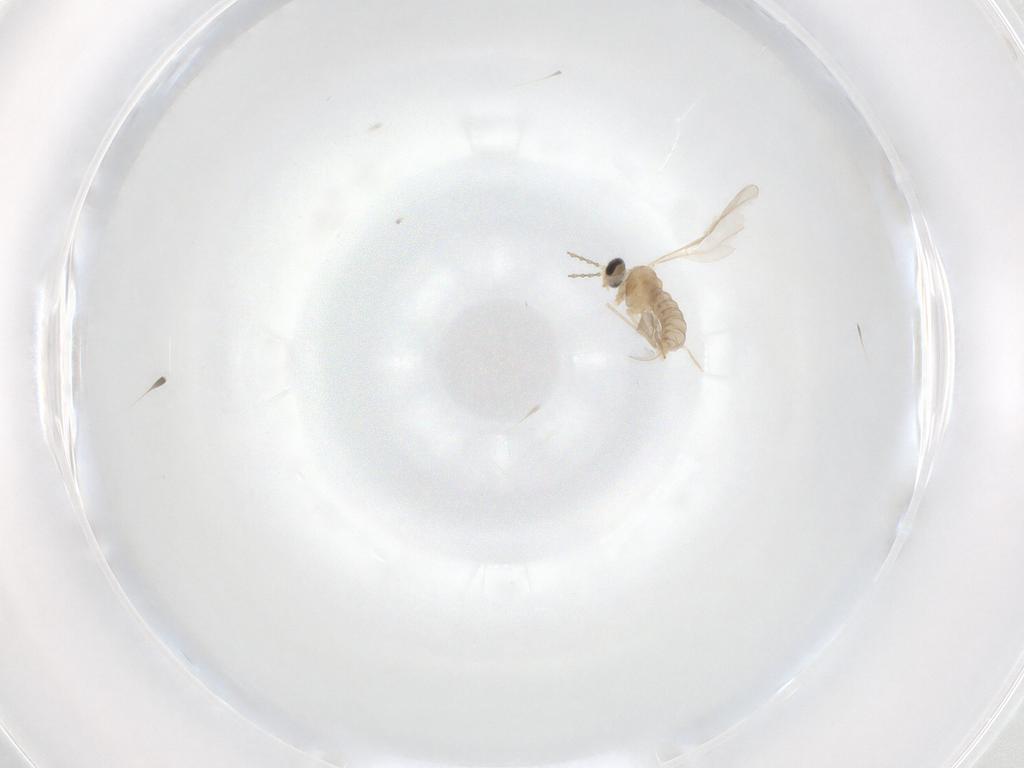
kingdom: Animalia
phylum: Arthropoda
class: Insecta
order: Diptera
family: Cecidomyiidae
